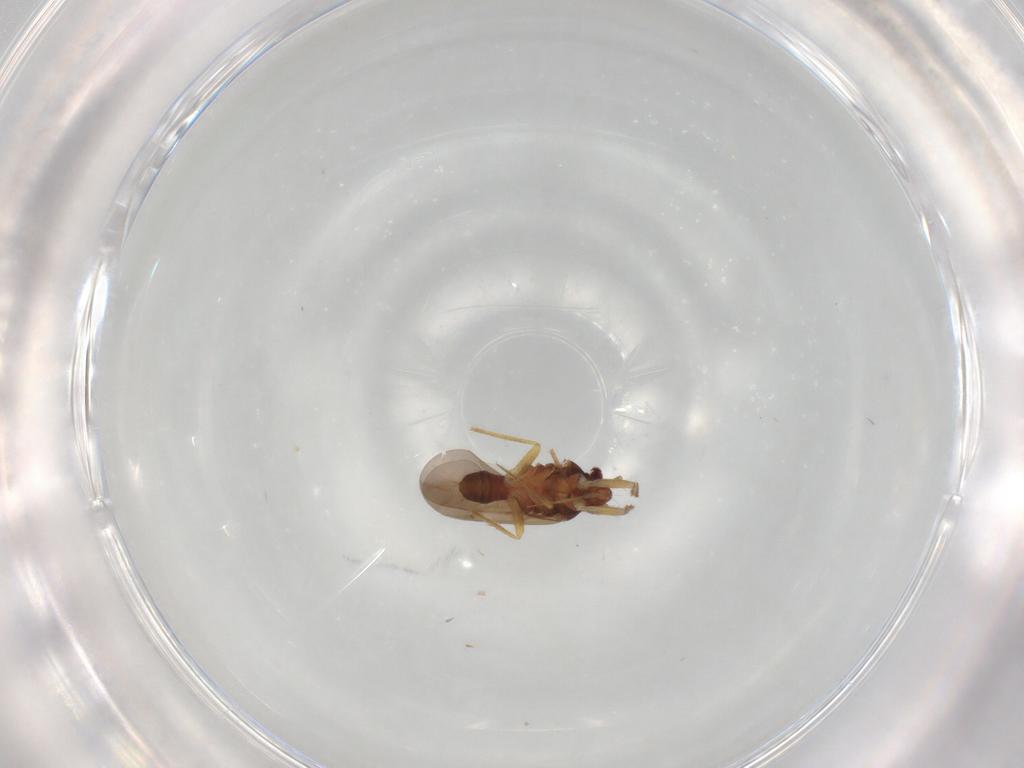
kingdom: Animalia
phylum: Arthropoda
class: Insecta
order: Hemiptera
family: Ceratocombidae
